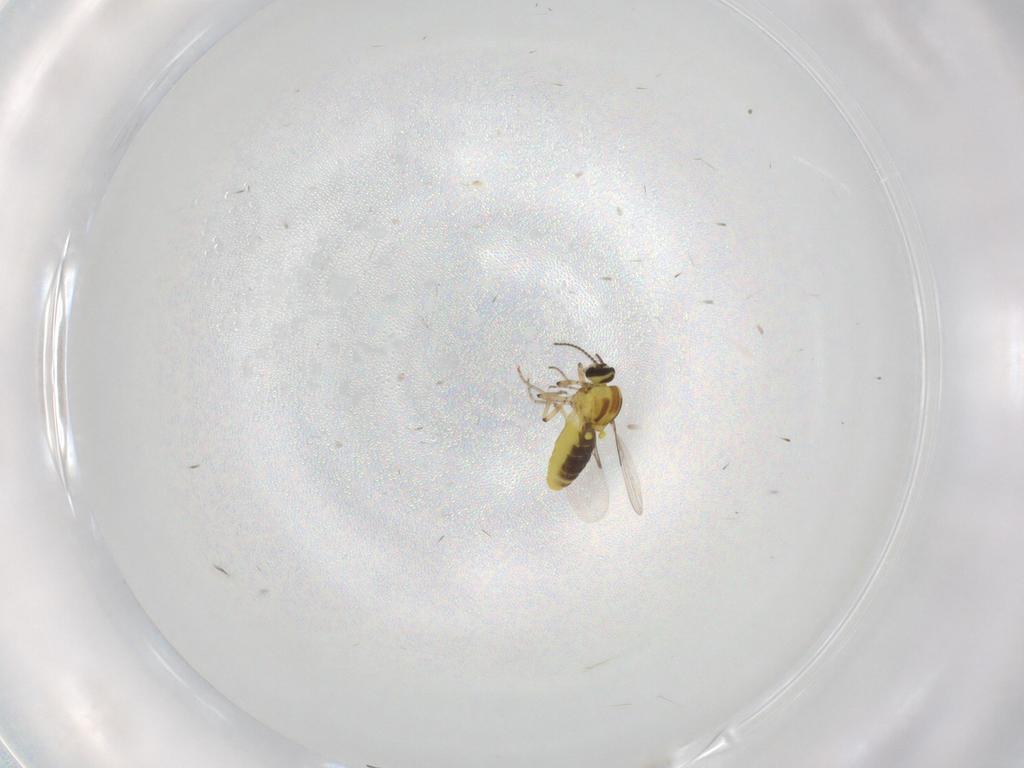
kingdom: Animalia
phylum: Arthropoda
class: Insecta
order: Diptera
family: Ceratopogonidae
